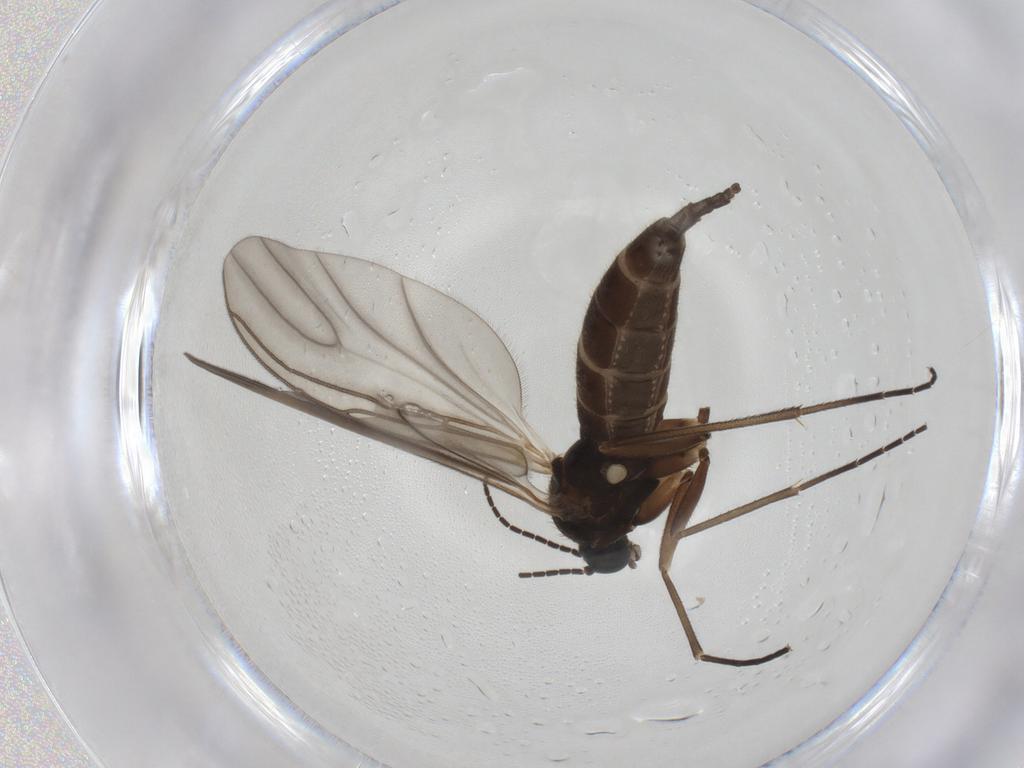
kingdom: Animalia
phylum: Arthropoda
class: Insecta
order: Diptera
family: Sciaridae
